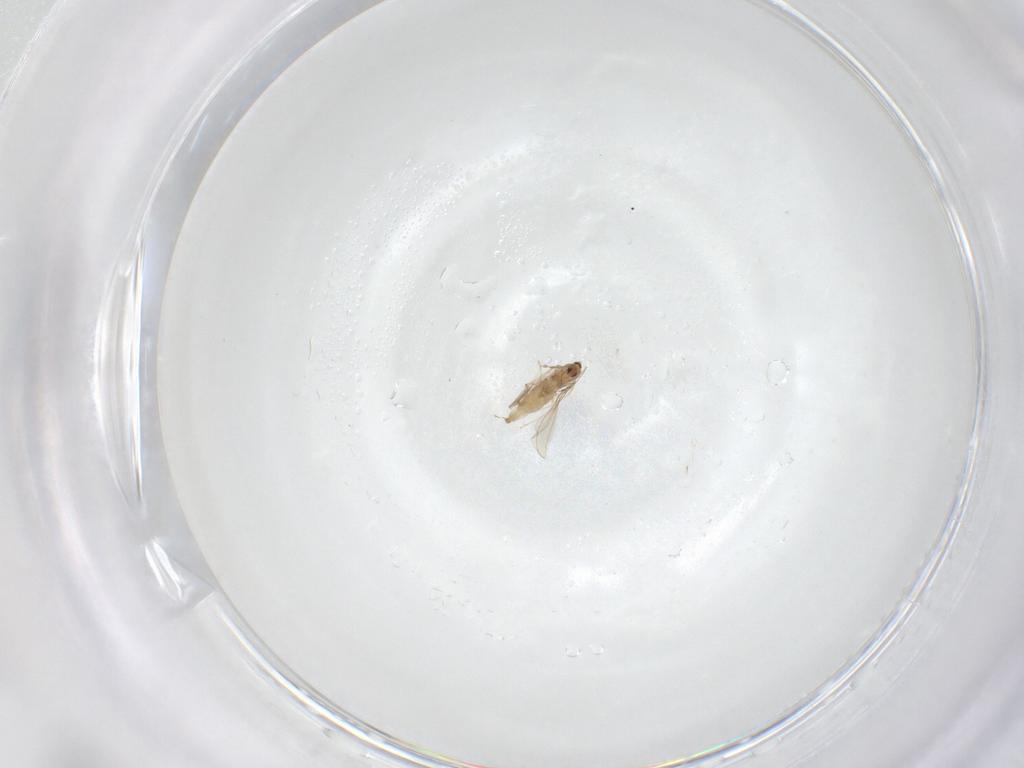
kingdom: Animalia
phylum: Arthropoda
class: Insecta
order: Diptera
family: Cecidomyiidae
